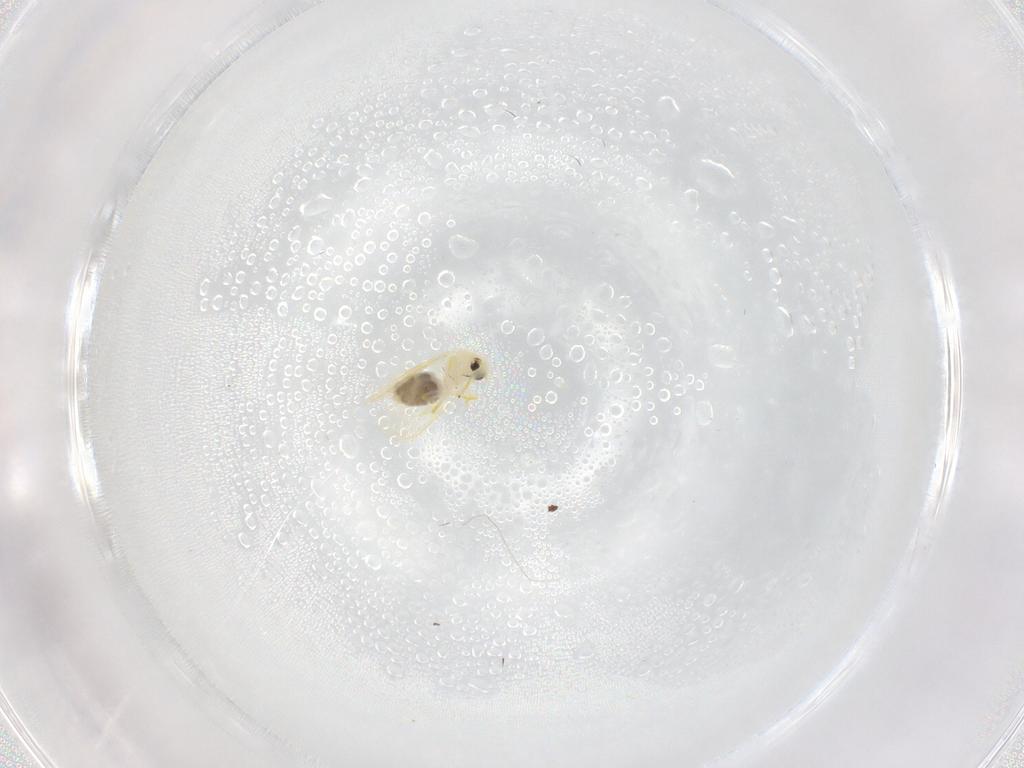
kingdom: Animalia
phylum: Arthropoda
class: Insecta
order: Hemiptera
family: Aleyrodidae
